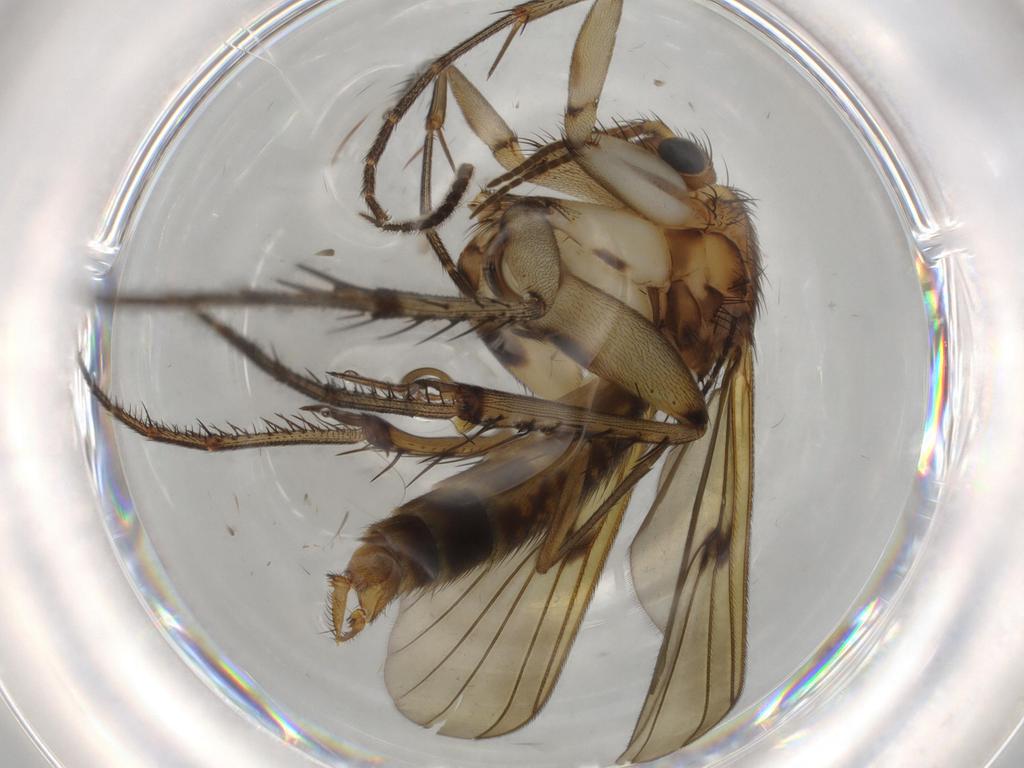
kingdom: Animalia
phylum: Arthropoda
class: Insecta
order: Diptera
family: Mycetophilidae
